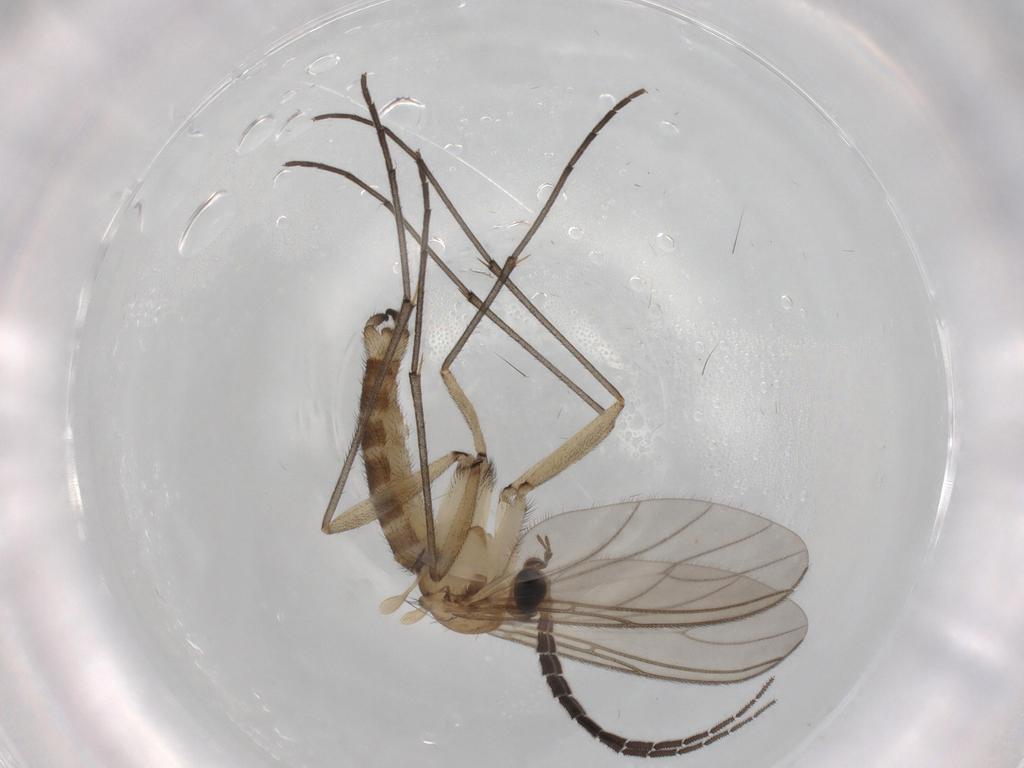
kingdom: Animalia
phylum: Arthropoda
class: Insecta
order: Diptera
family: Sciaridae
